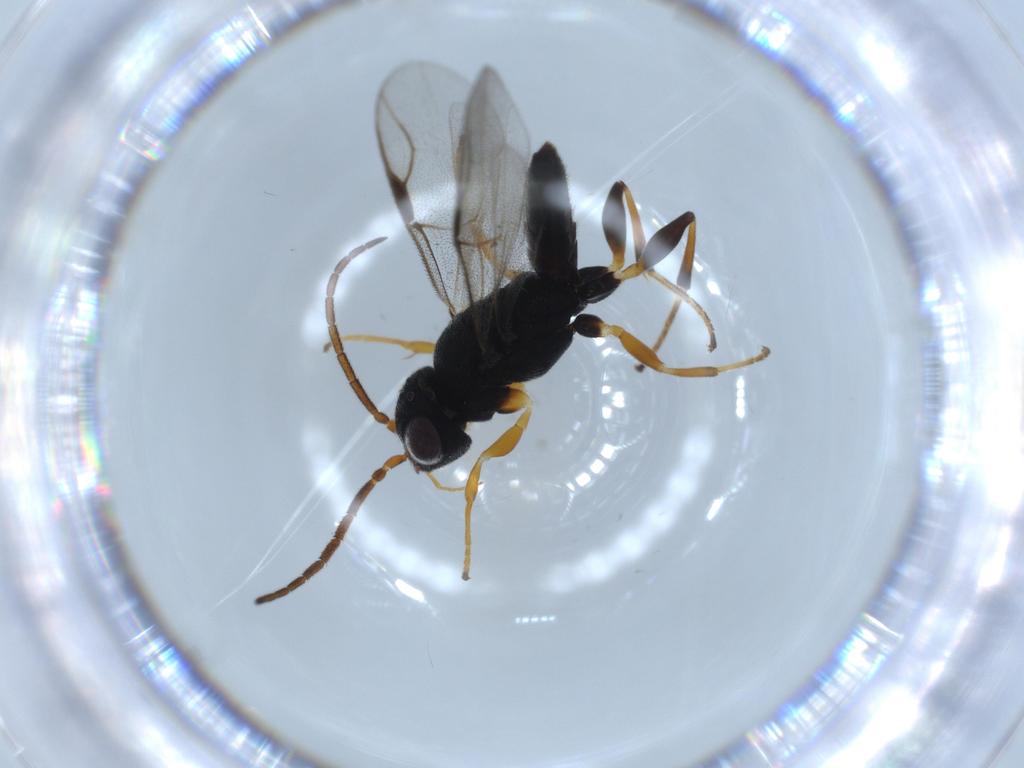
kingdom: Animalia
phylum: Arthropoda
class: Insecta
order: Hymenoptera
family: Dryinidae
